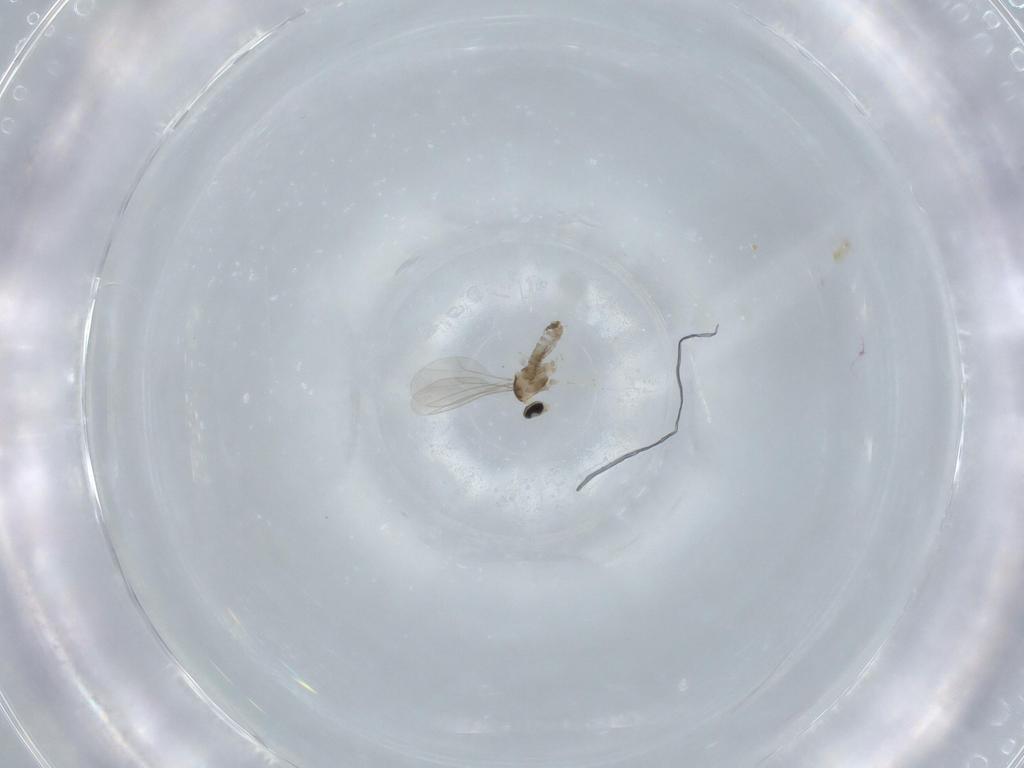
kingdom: Animalia
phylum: Arthropoda
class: Insecta
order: Diptera
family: Cecidomyiidae
